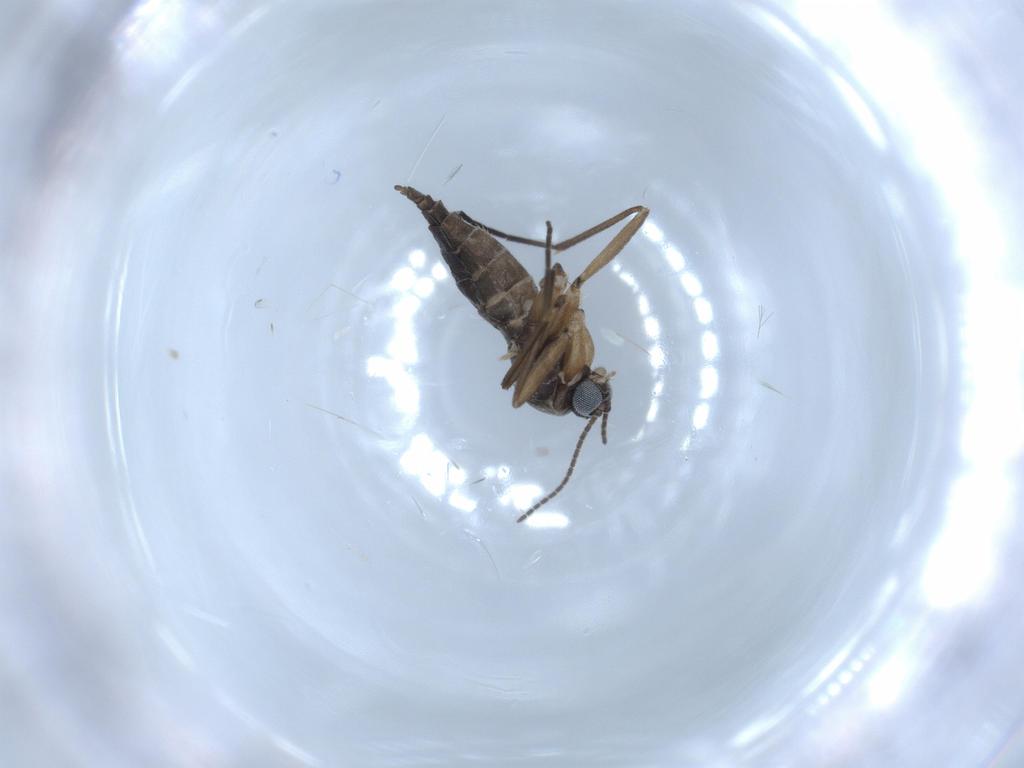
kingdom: Animalia
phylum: Arthropoda
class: Insecta
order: Diptera
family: Sciaridae
